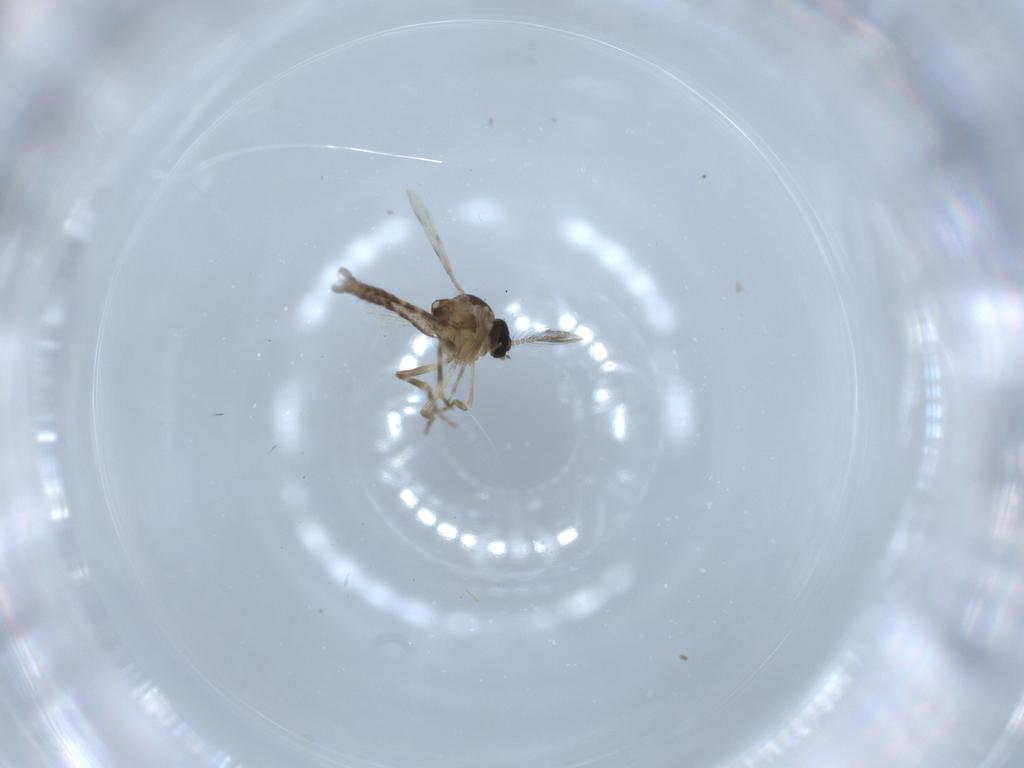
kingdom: Animalia
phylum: Arthropoda
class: Insecta
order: Diptera
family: Ceratopogonidae
